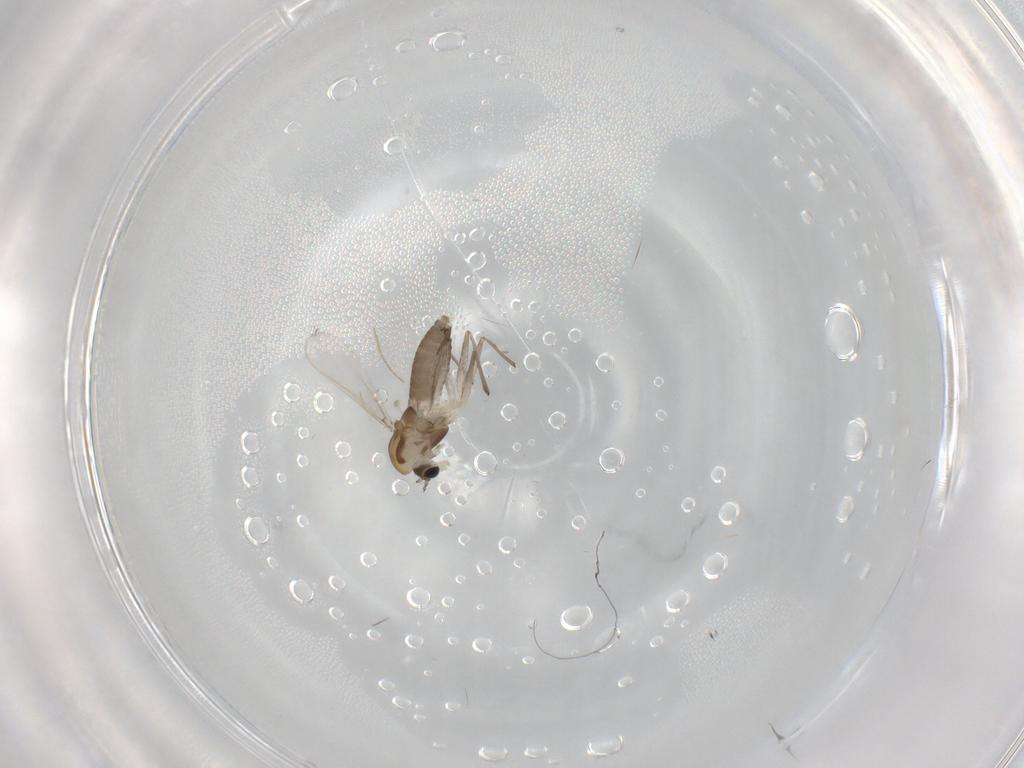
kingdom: Animalia
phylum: Arthropoda
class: Insecta
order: Diptera
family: Chironomidae
